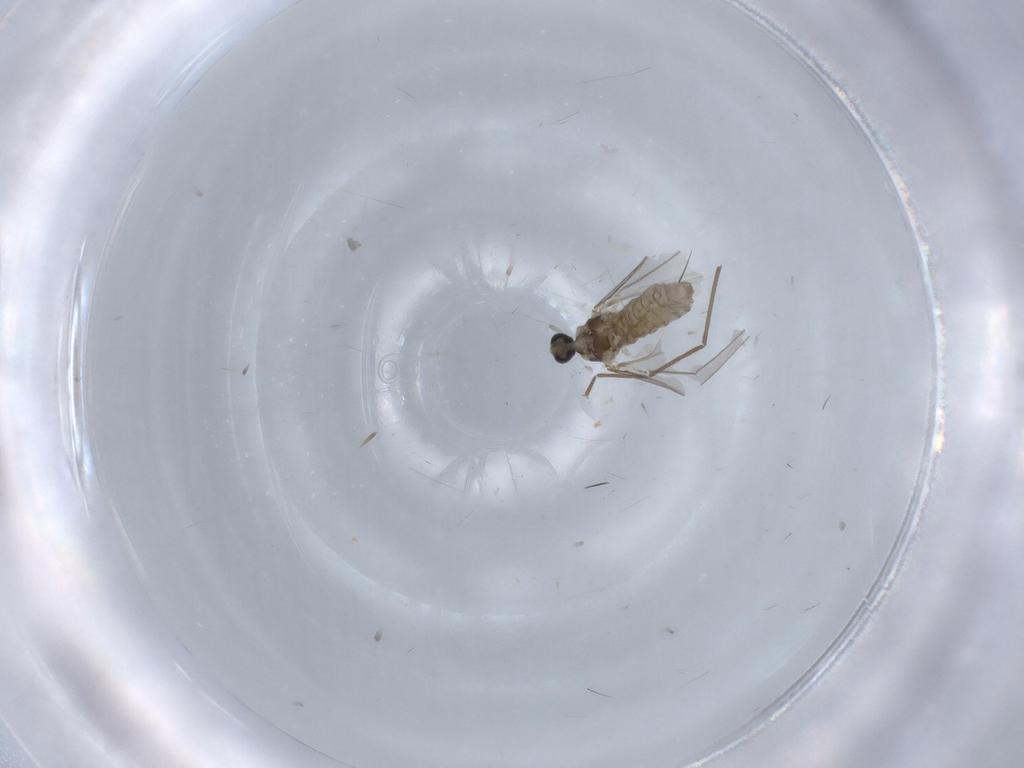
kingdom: Animalia
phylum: Arthropoda
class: Insecta
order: Diptera
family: Cecidomyiidae
